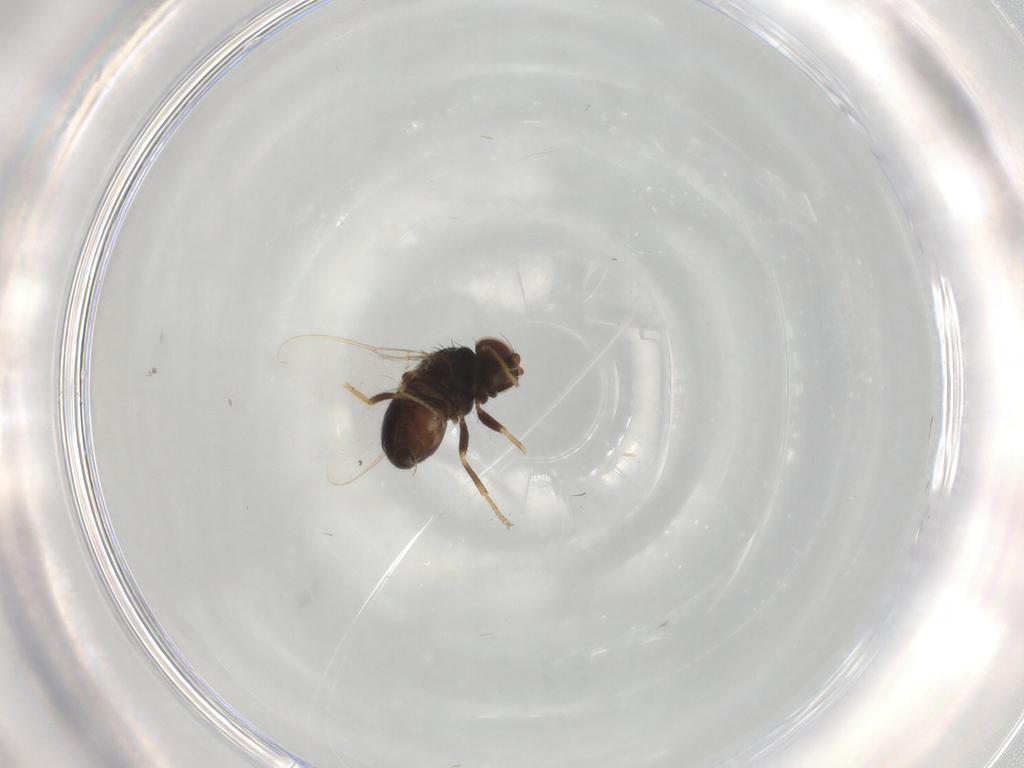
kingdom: Animalia
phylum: Arthropoda
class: Insecta
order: Diptera
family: Chloropidae
